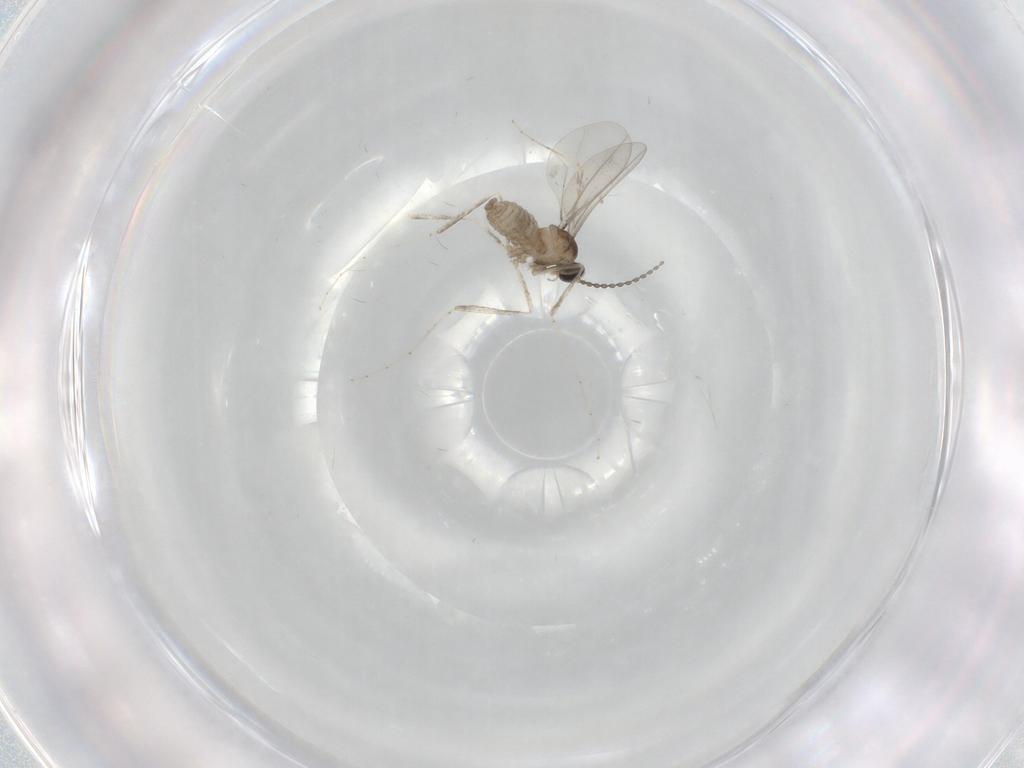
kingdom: Animalia
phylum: Arthropoda
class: Insecta
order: Diptera
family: Cecidomyiidae
